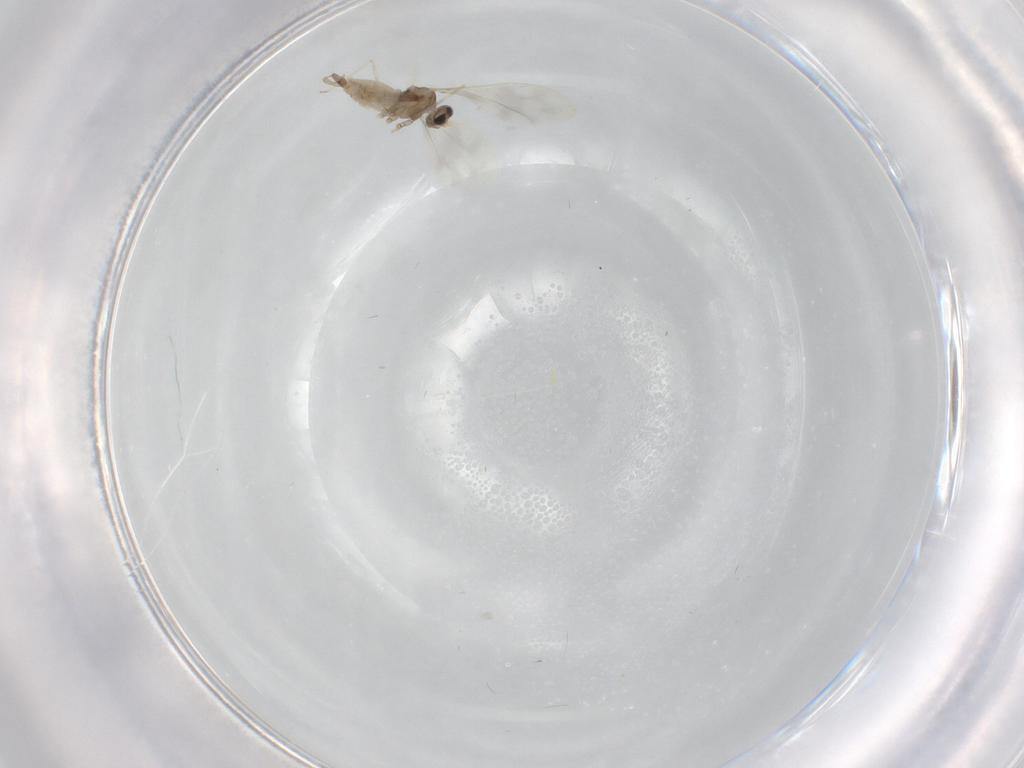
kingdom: Animalia
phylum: Arthropoda
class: Insecta
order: Diptera
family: Cecidomyiidae
